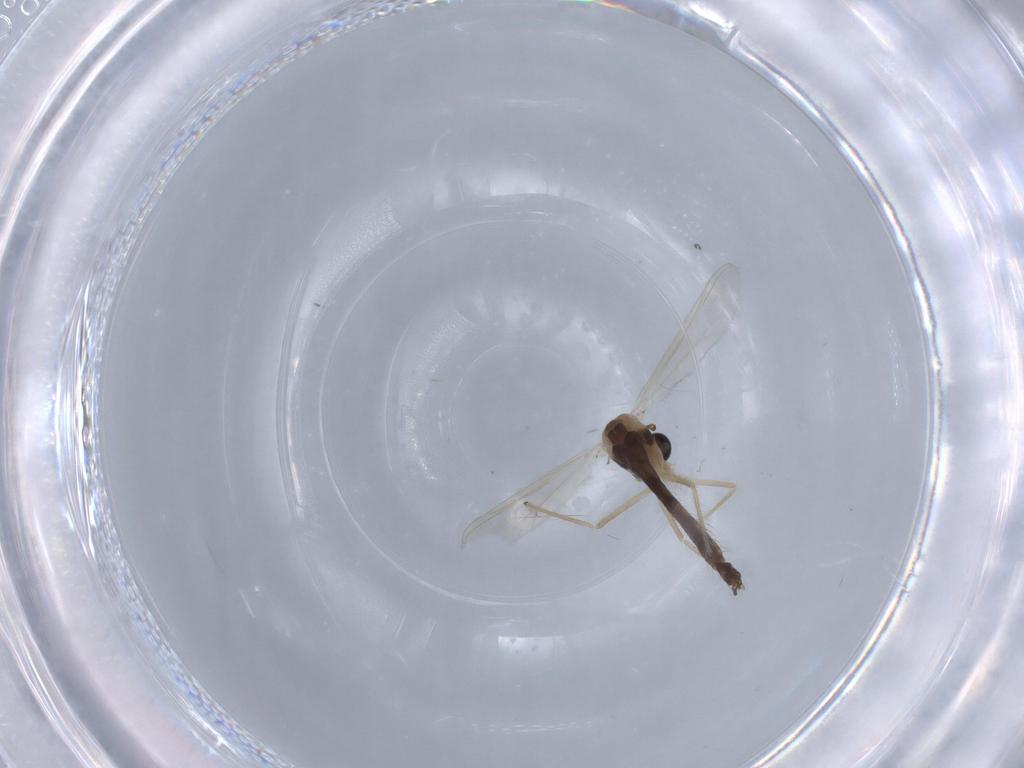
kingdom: Animalia
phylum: Arthropoda
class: Insecta
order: Diptera
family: Chironomidae
